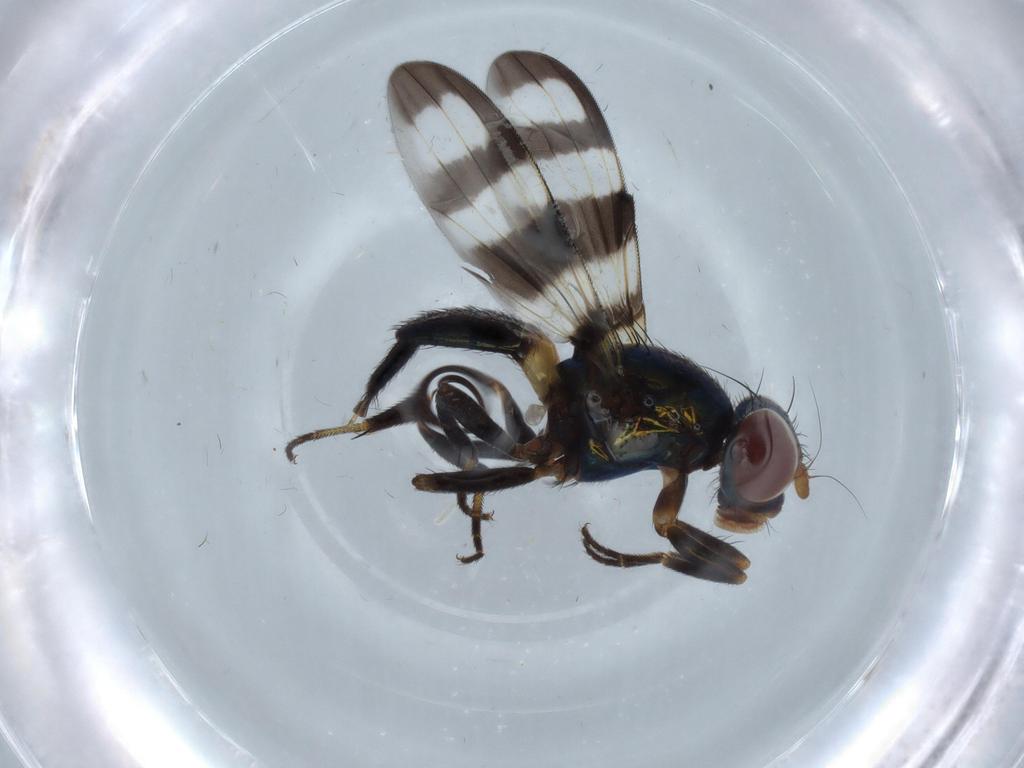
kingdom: Animalia
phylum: Arthropoda
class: Insecta
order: Diptera
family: Ulidiidae
